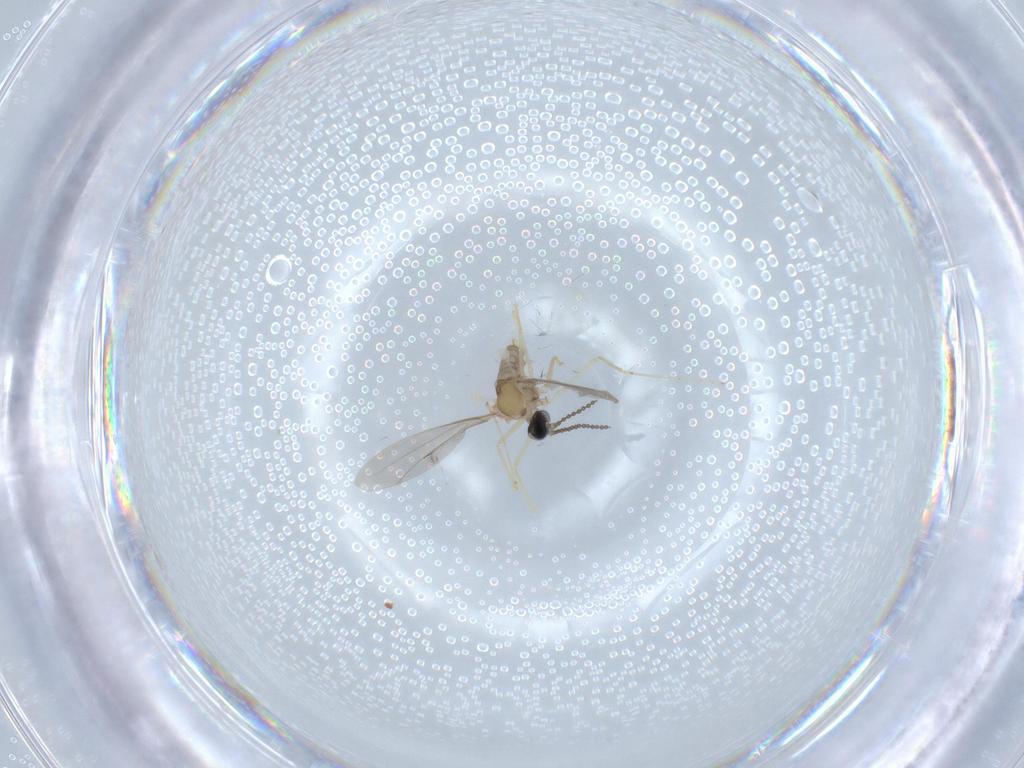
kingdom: Animalia
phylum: Arthropoda
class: Insecta
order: Diptera
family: Cecidomyiidae
